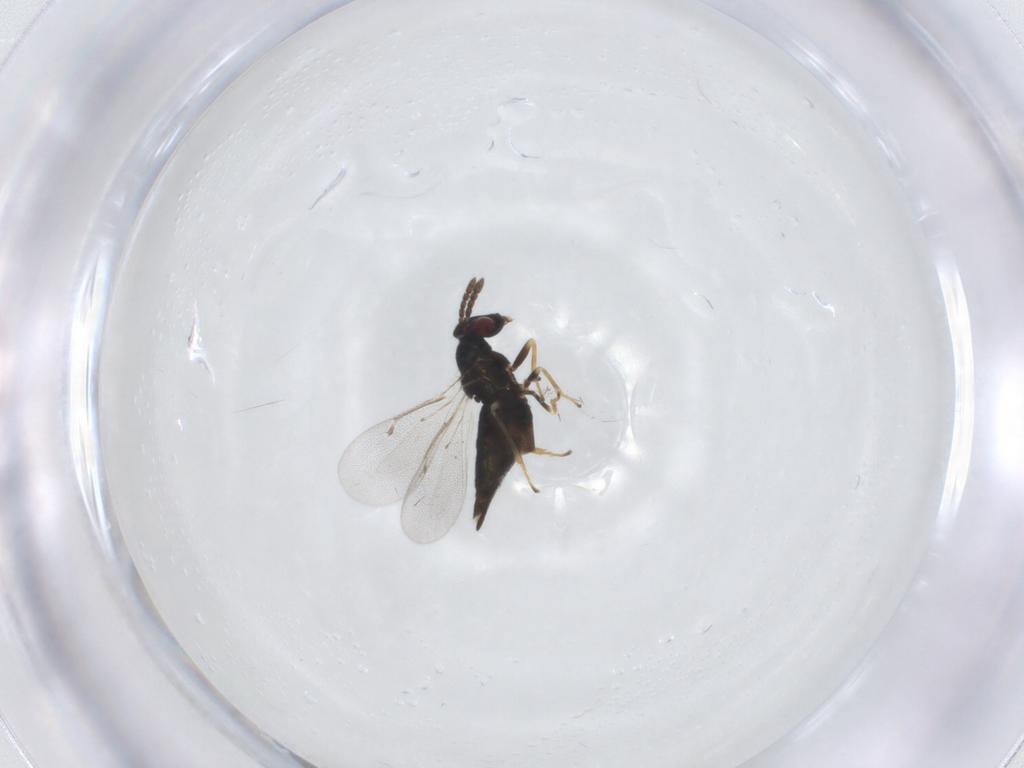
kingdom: Animalia
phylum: Arthropoda
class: Insecta
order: Hymenoptera
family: Eulophidae
